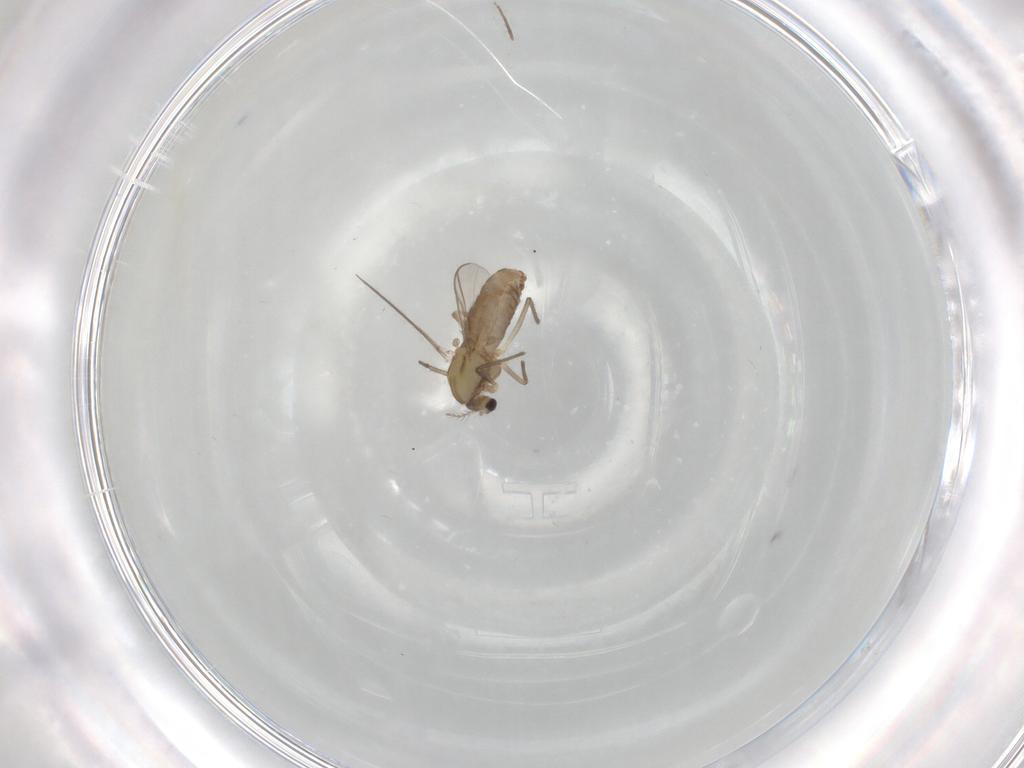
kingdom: Animalia
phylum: Arthropoda
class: Insecta
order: Diptera
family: Chironomidae
